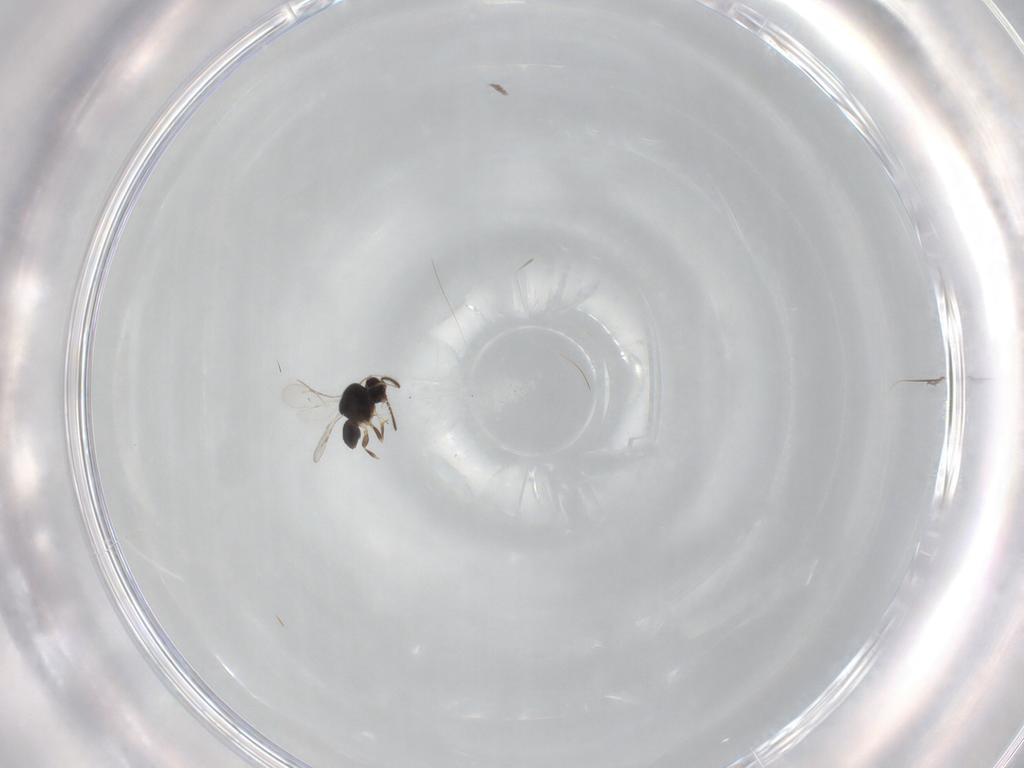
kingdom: Animalia
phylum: Arthropoda
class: Insecta
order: Hymenoptera
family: Scelionidae
